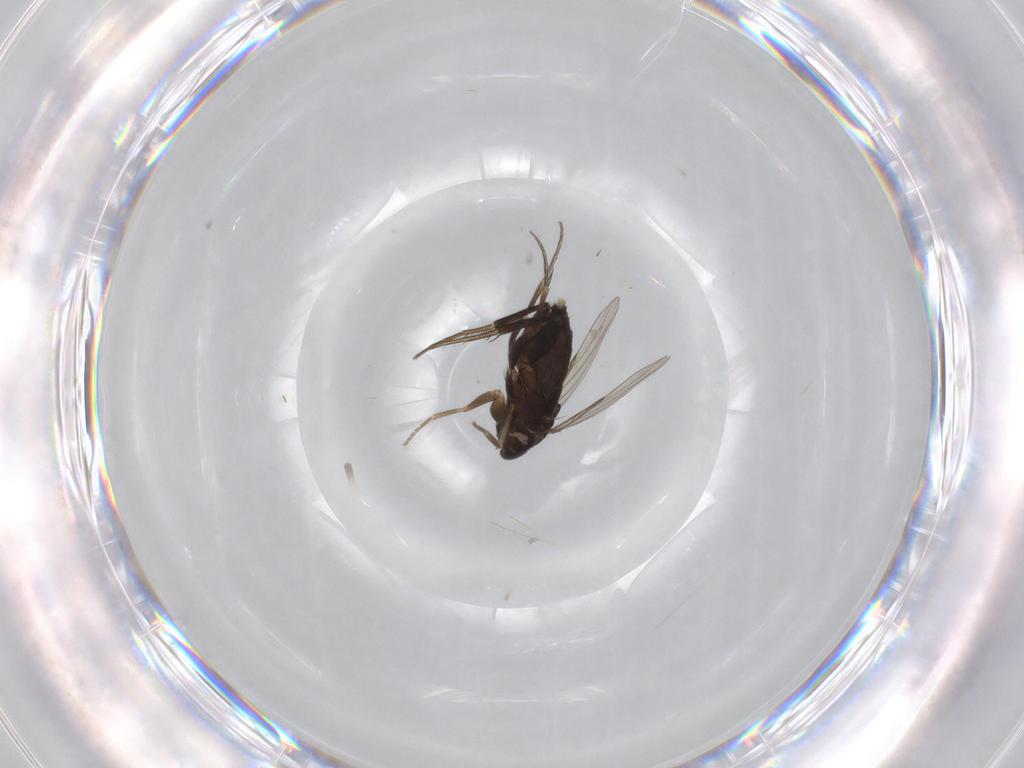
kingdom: Animalia
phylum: Arthropoda
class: Insecta
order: Diptera
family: Phoridae
